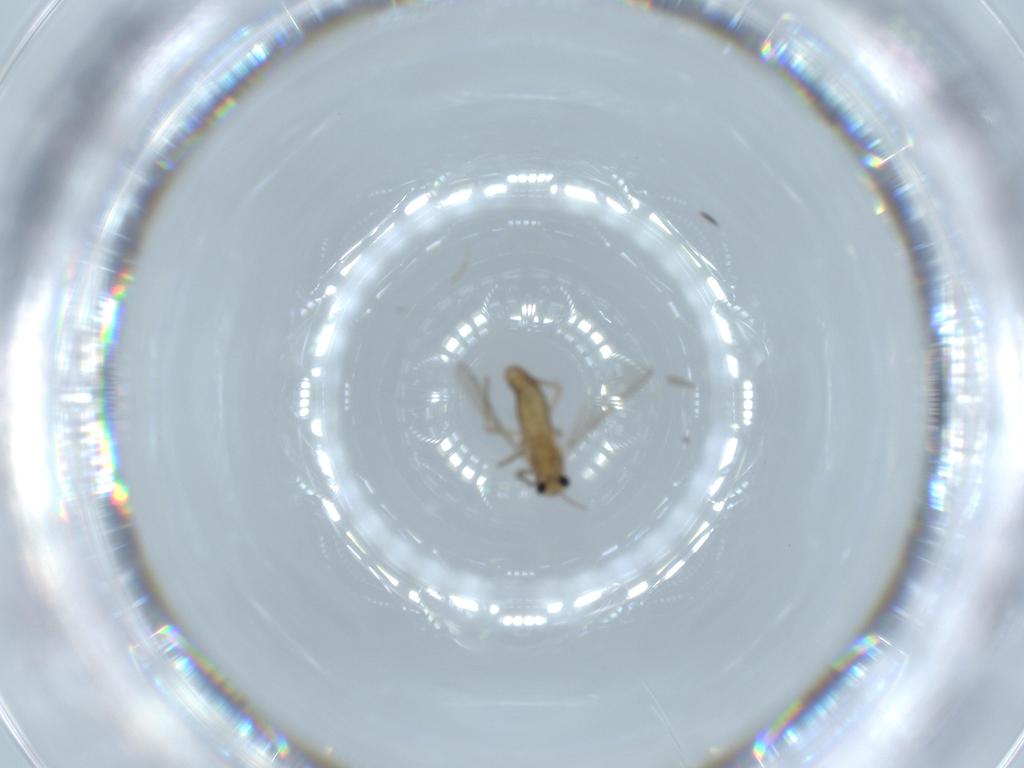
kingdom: Animalia
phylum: Arthropoda
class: Insecta
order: Diptera
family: Chironomidae
